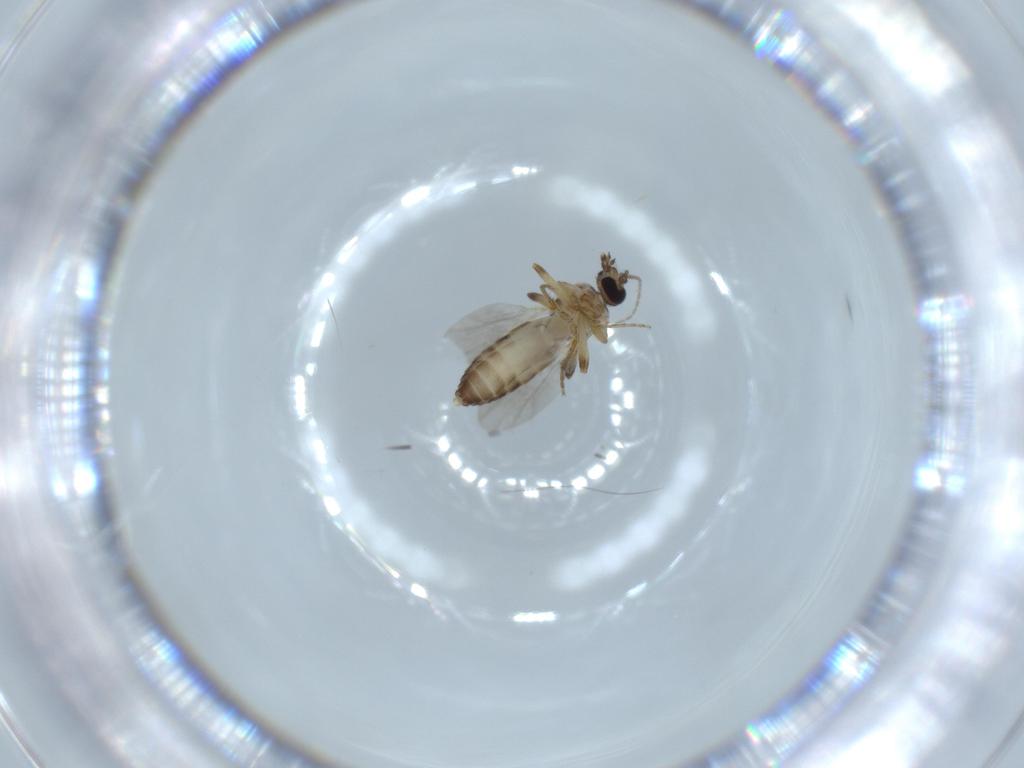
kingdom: Animalia
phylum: Arthropoda
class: Insecta
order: Diptera
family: Ceratopogonidae
